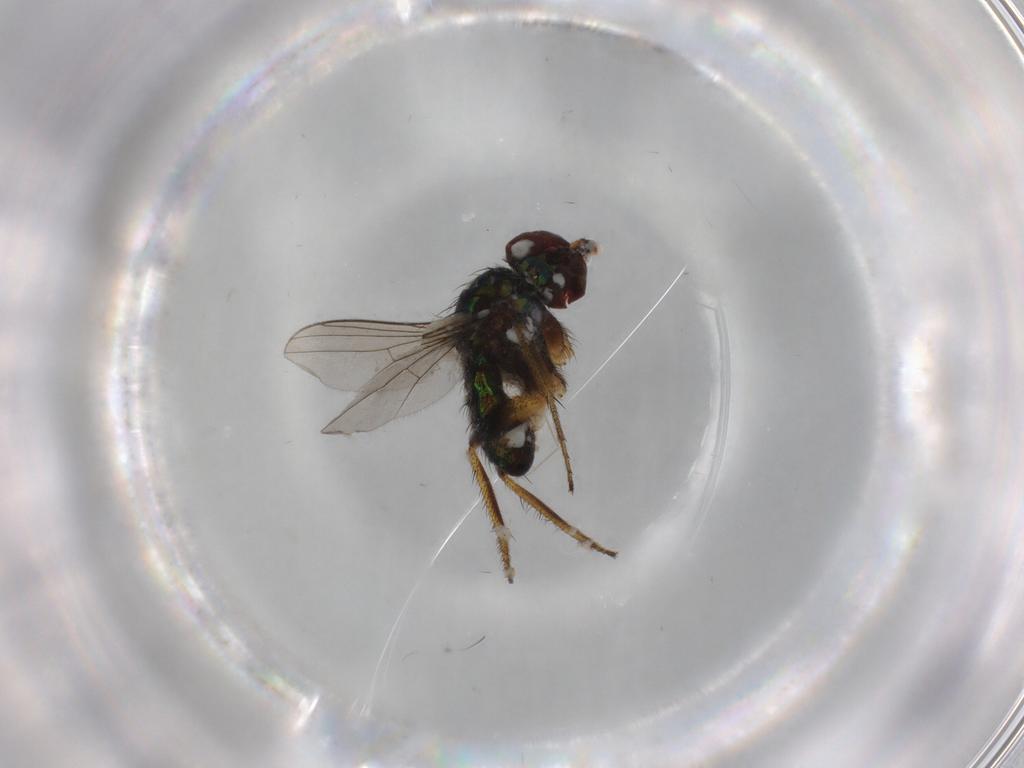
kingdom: Animalia
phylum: Arthropoda
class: Insecta
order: Diptera
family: Dolichopodidae
